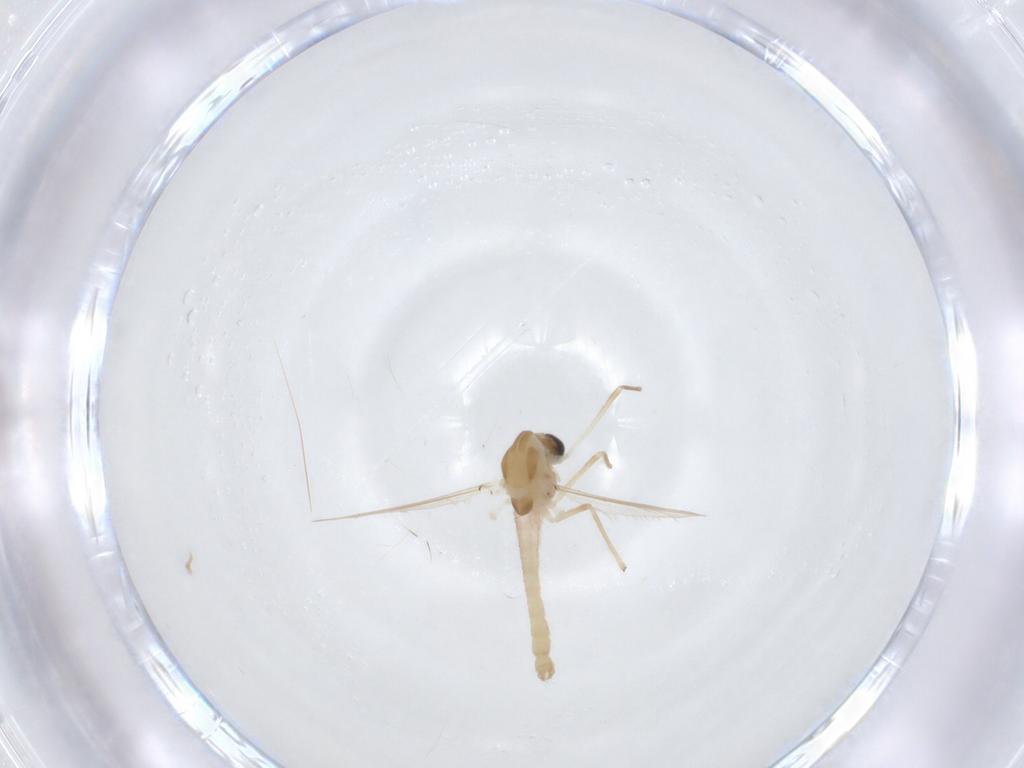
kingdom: Animalia
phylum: Arthropoda
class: Insecta
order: Diptera
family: Chironomidae
